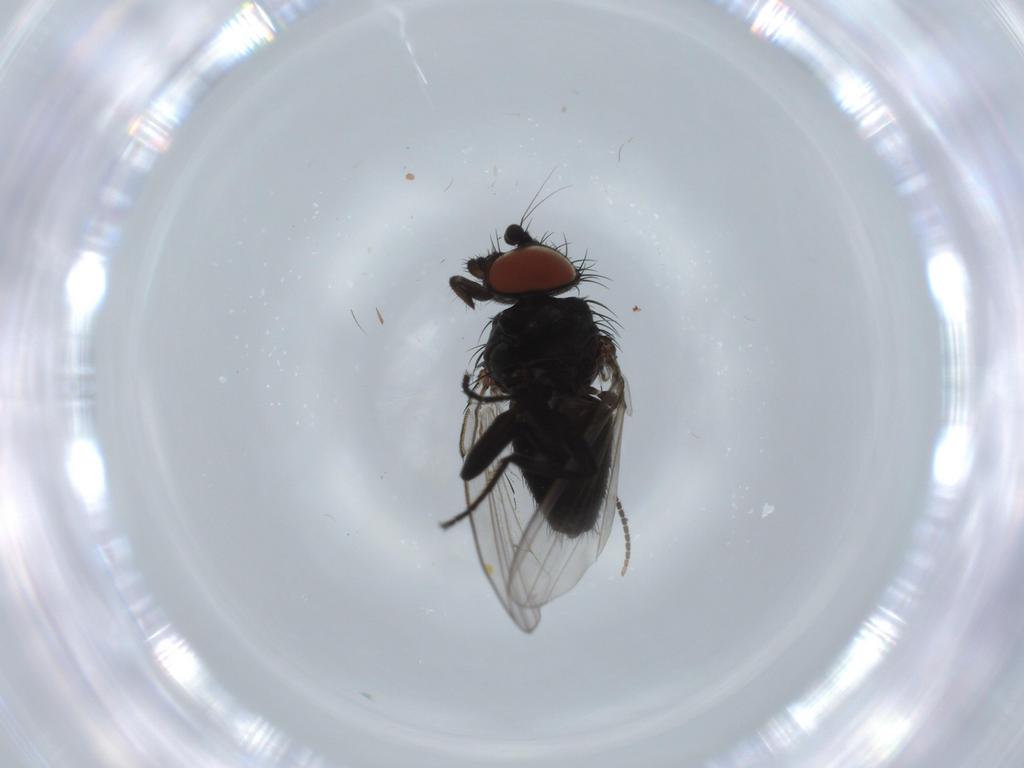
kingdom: Animalia
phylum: Arthropoda
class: Insecta
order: Diptera
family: Milichiidae
